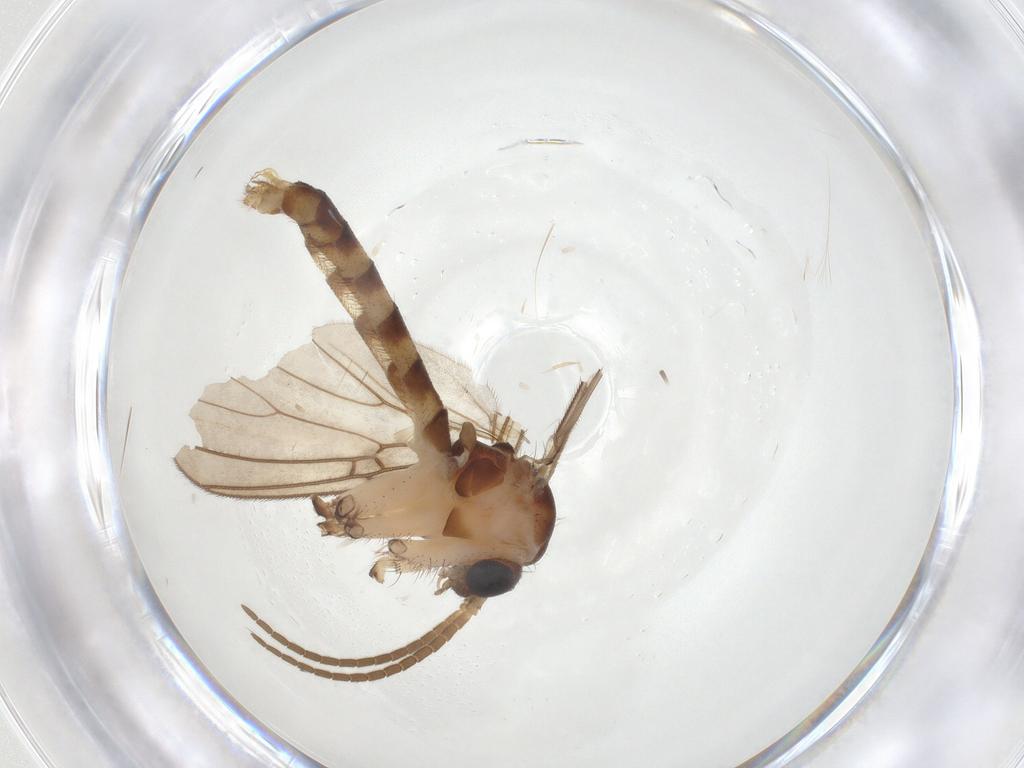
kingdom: Animalia
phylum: Arthropoda
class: Insecta
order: Diptera
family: Mycetophilidae
